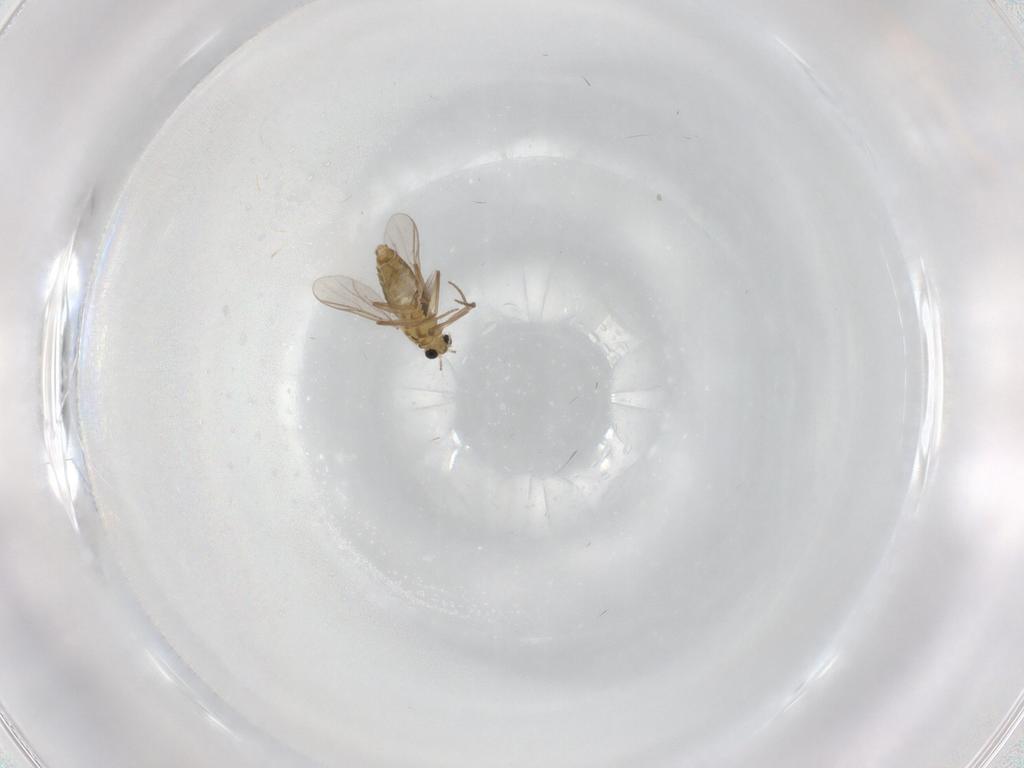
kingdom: Animalia
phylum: Arthropoda
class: Insecta
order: Diptera
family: Chironomidae
